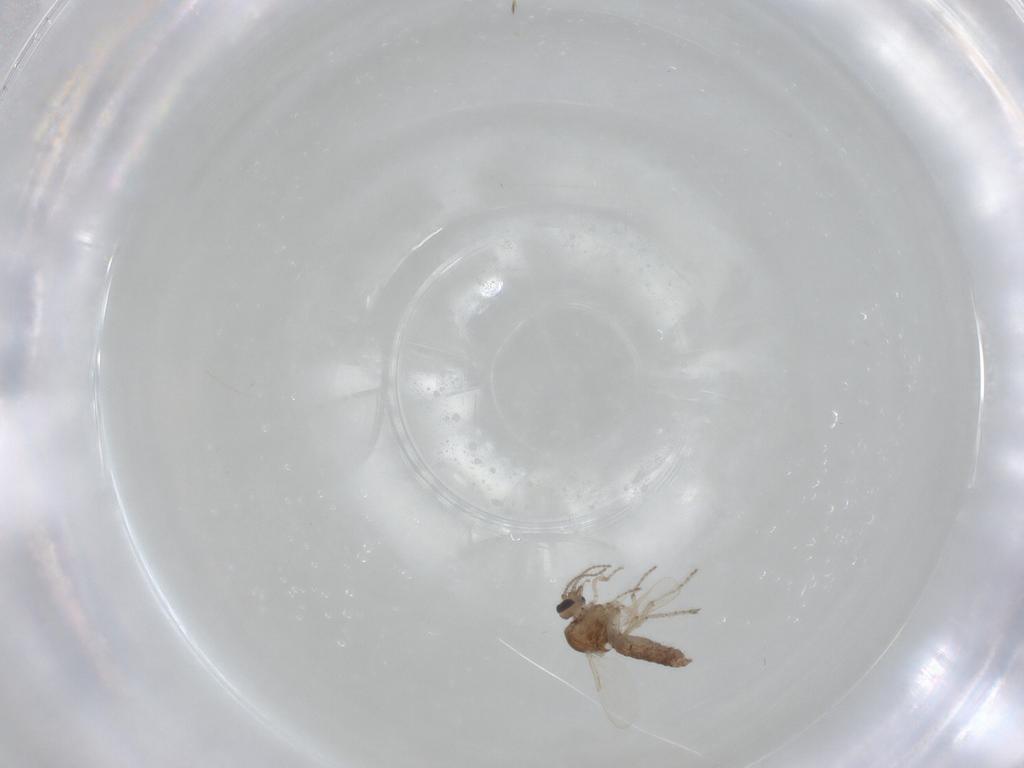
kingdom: Animalia
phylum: Arthropoda
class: Insecta
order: Diptera
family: Ceratopogonidae
